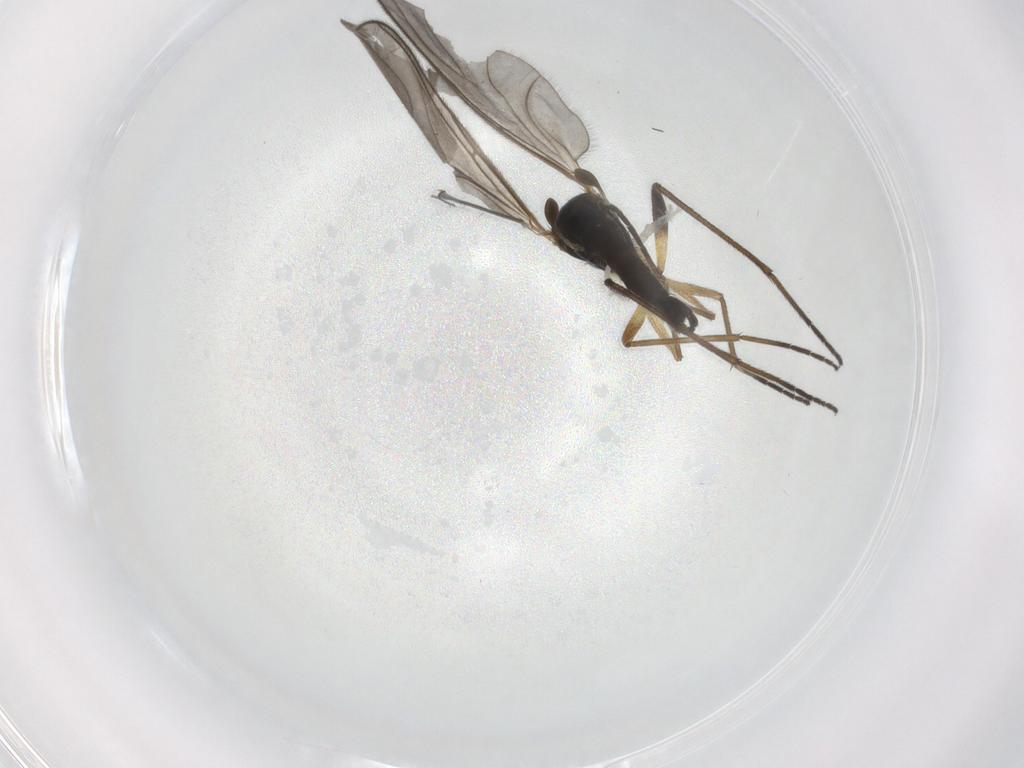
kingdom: Animalia
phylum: Arthropoda
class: Insecta
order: Diptera
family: Sciaridae
